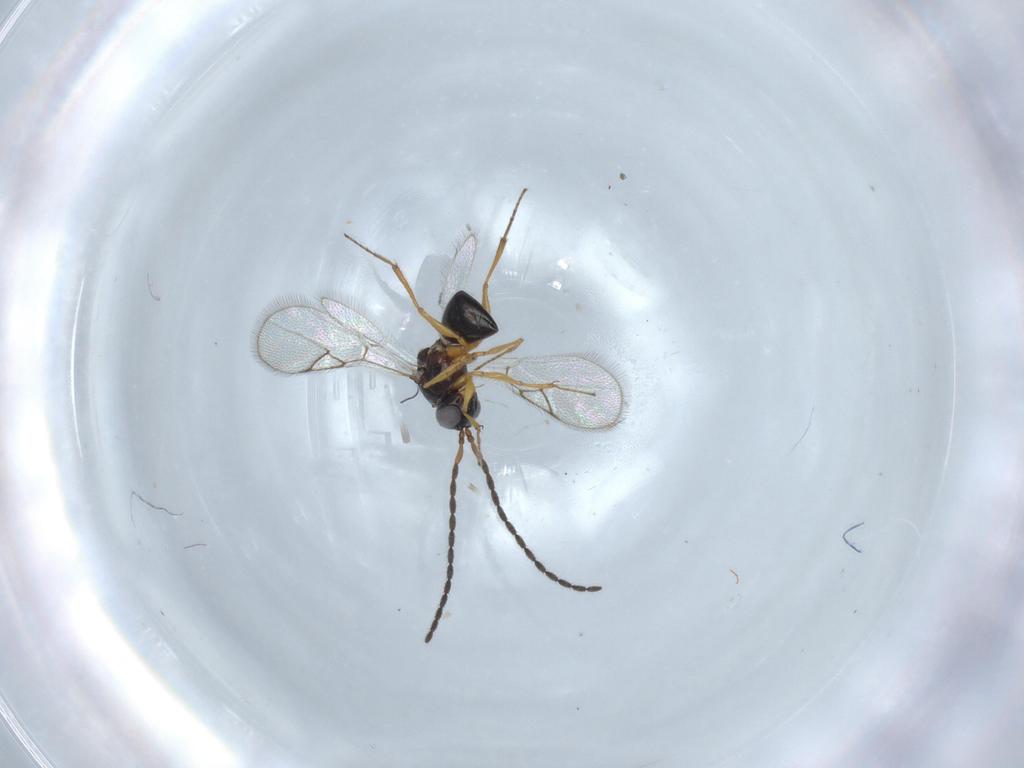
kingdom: Animalia
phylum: Arthropoda
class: Insecta
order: Hymenoptera
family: Figitidae
